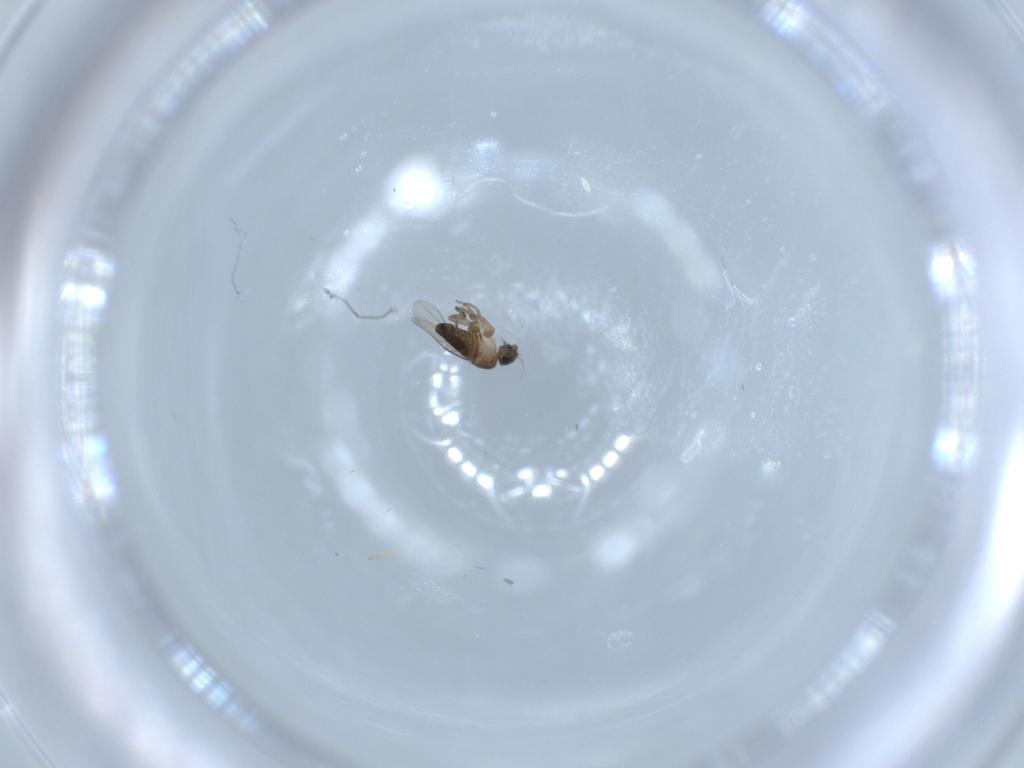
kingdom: Animalia
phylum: Arthropoda
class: Insecta
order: Diptera
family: Phoridae
